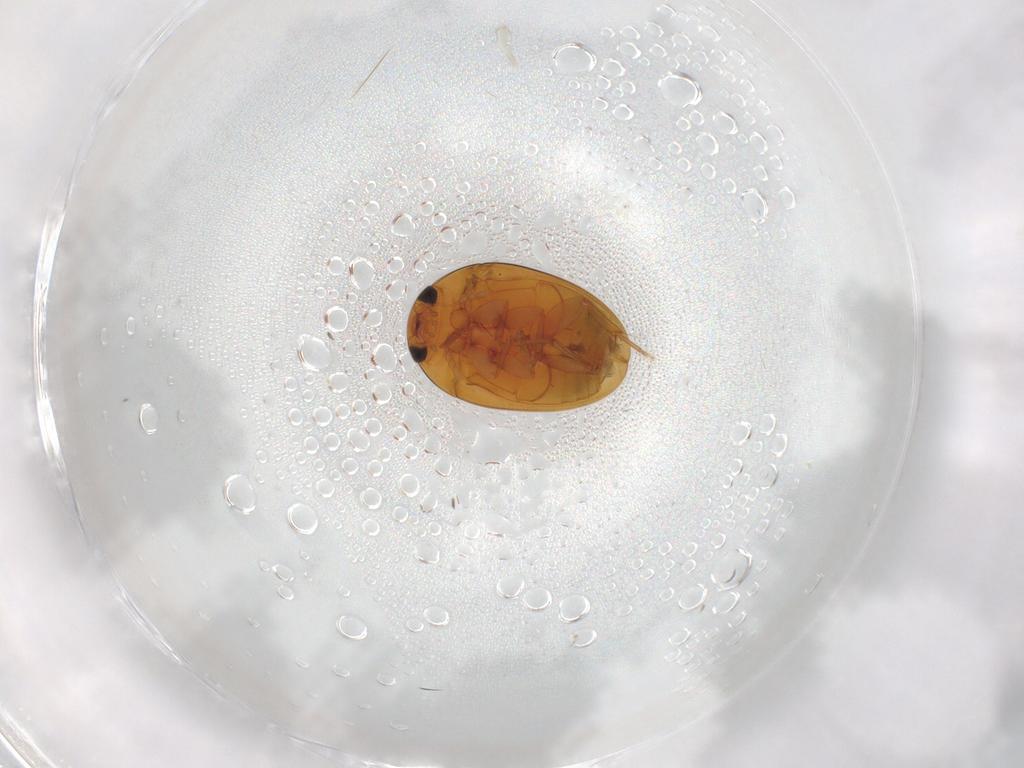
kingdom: Animalia
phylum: Arthropoda
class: Insecta
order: Coleoptera
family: Phalacridae
